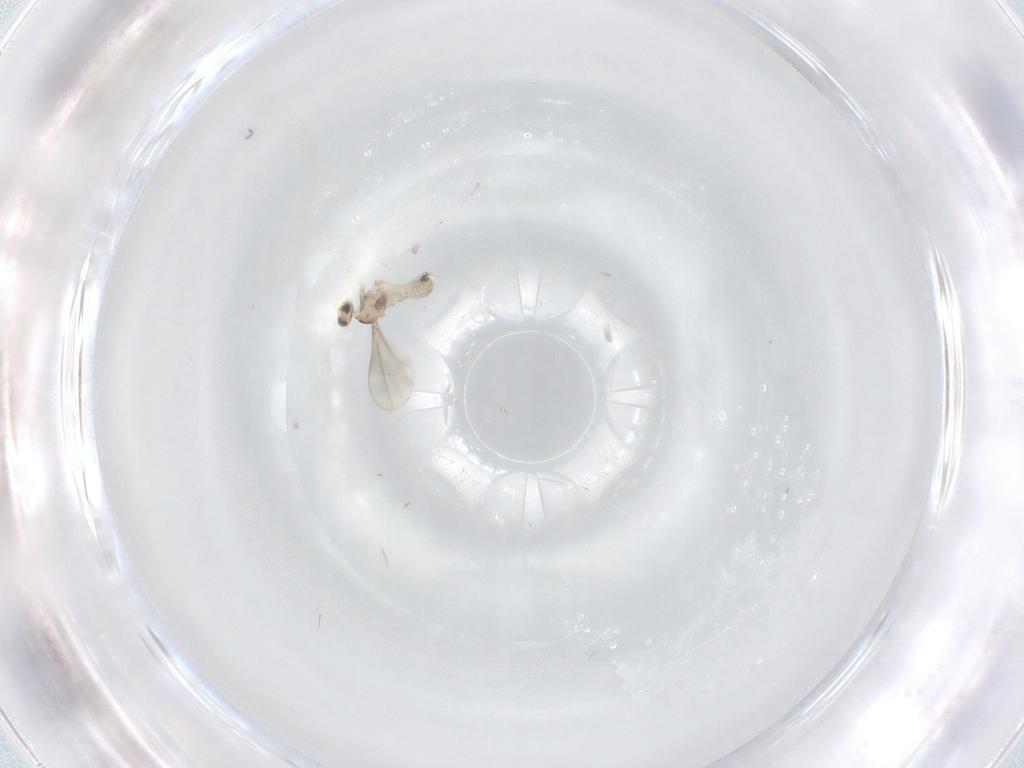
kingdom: Animalia
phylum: Arthropoda
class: Insecta
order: Diptera
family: Cecidomyiidae
